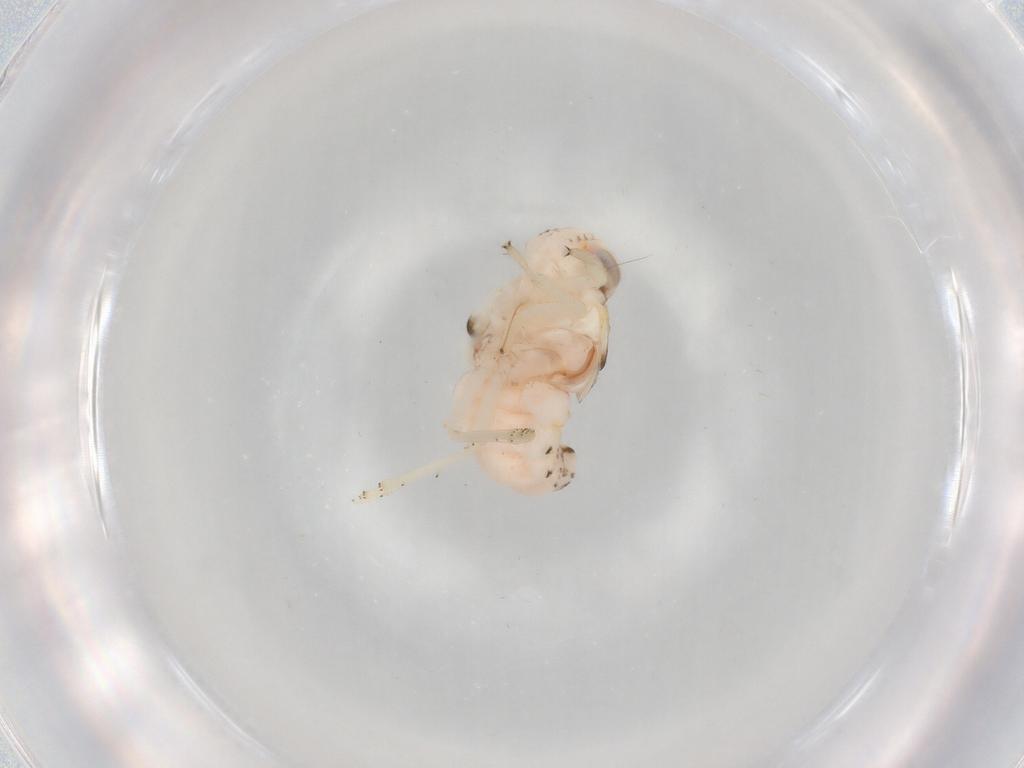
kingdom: Animalia
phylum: Arthropoda
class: Insecta
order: Hemiptera
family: Nogodinidae
